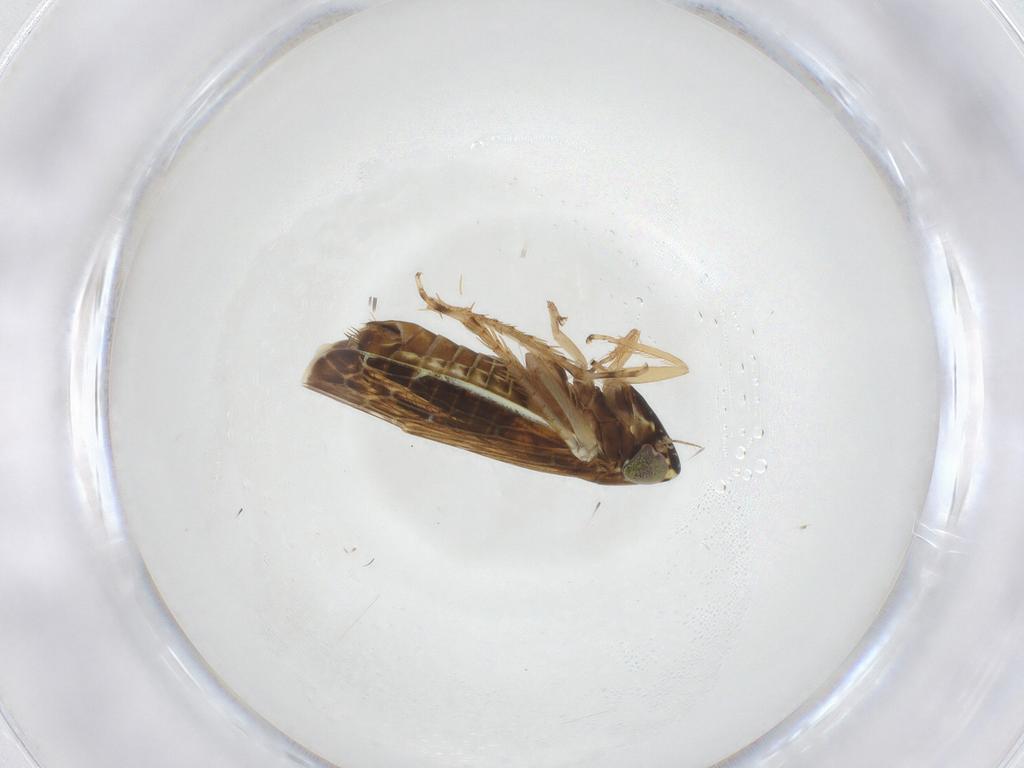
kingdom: Animalia
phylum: Arthropoda
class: Insecta
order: Hemiptera
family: Cicadellidae
